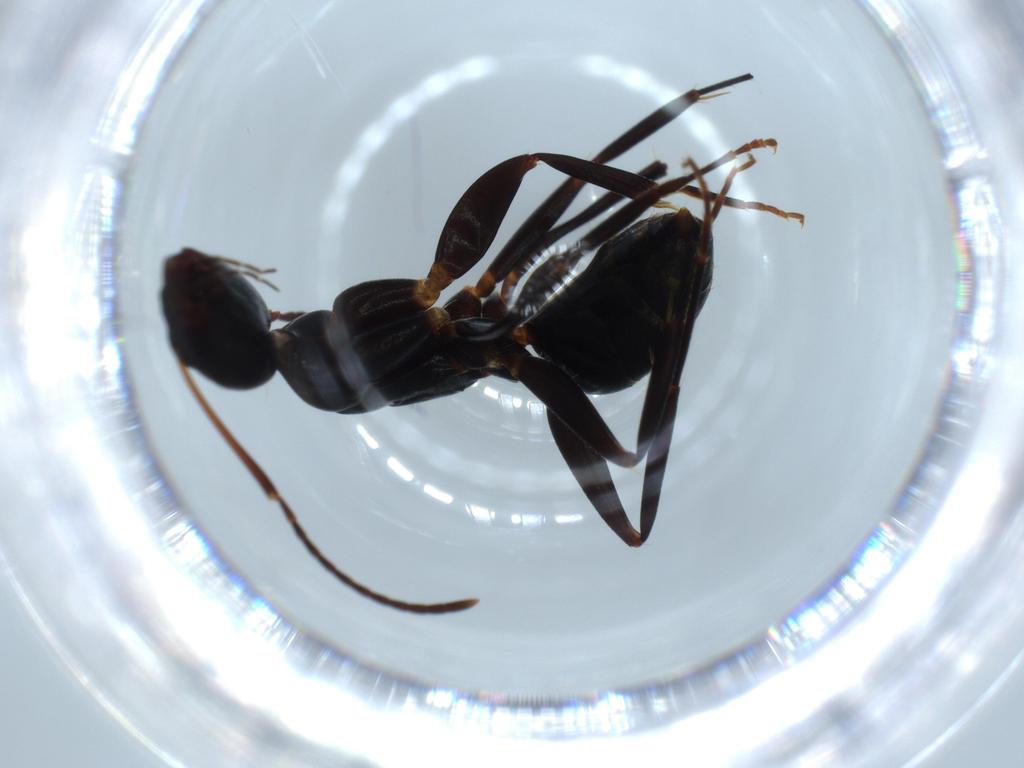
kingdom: Animalia
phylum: Arthropoda
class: Insecta
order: Hymenoptera
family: Formicidae
